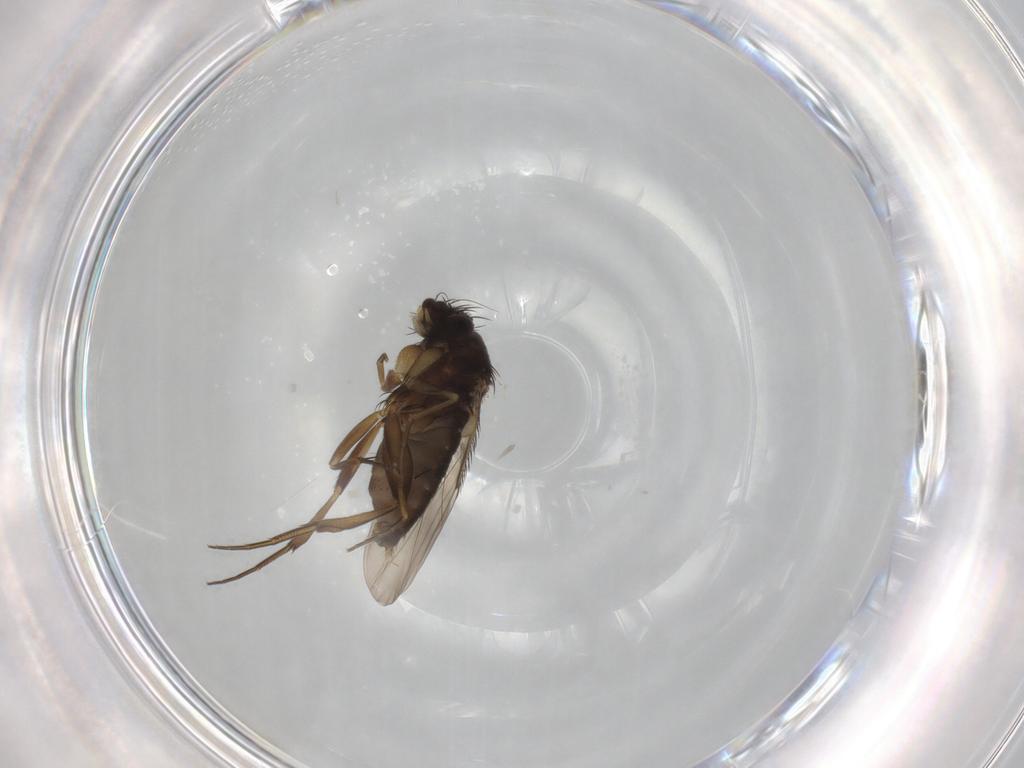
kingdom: Animalia
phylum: Arthropoda
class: Insecta
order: Diptera
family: Phoridae
